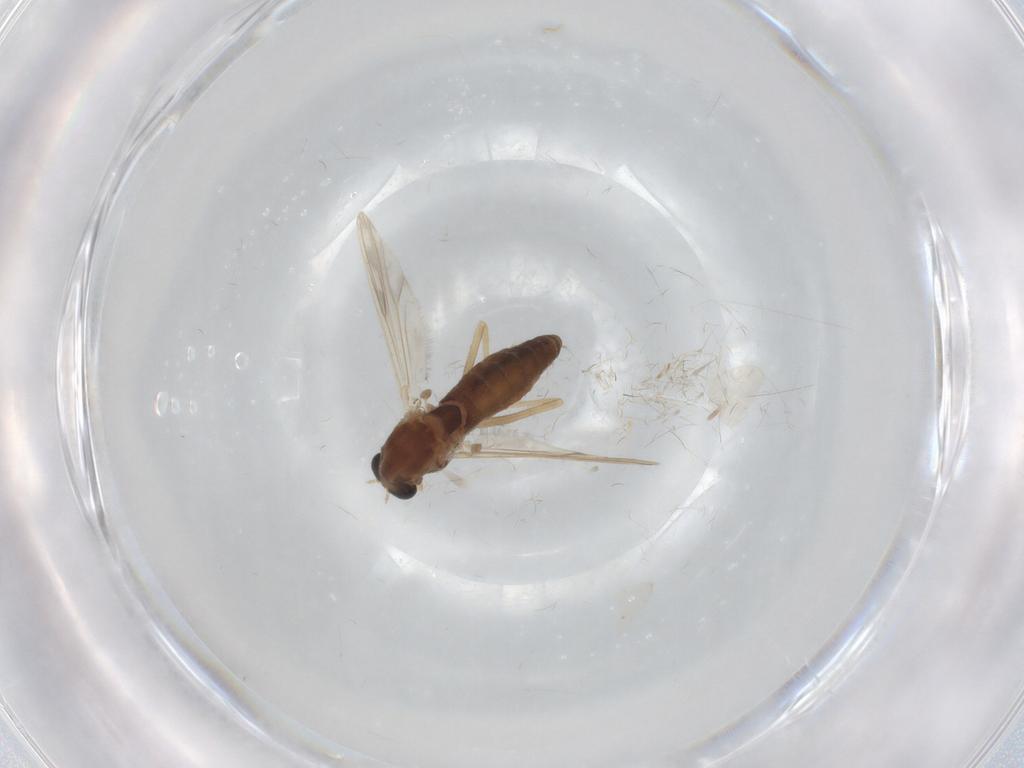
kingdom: Animalia
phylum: Arthropoda
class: Insecta
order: Diptera
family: Chironomidae
